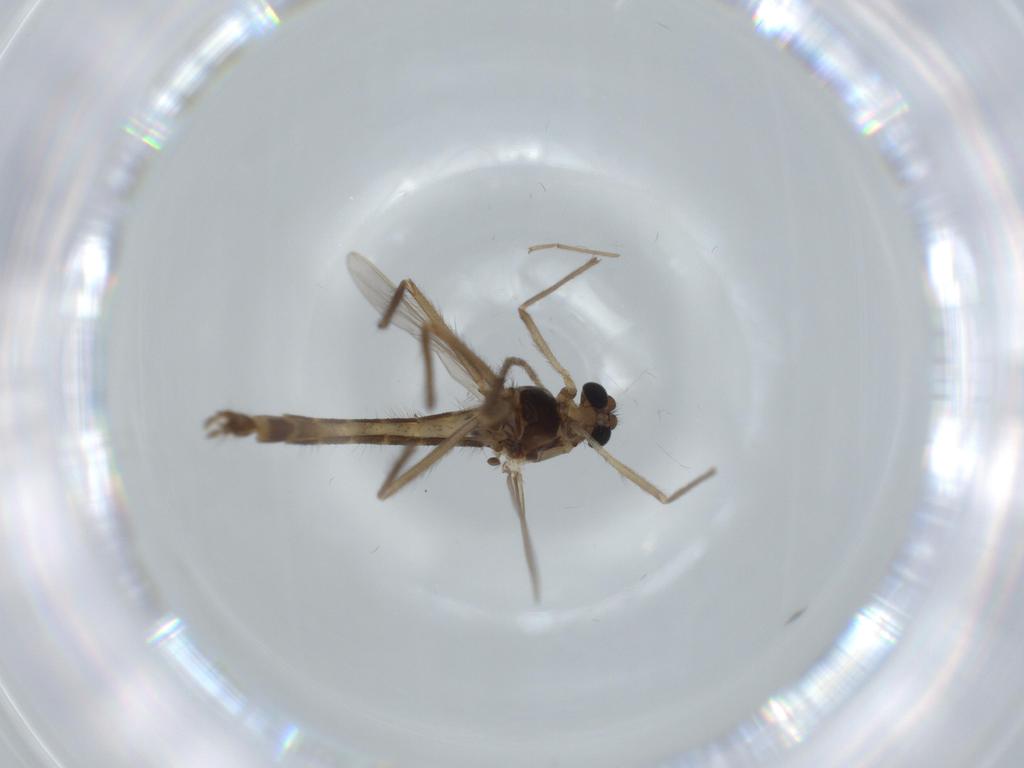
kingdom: Animalia
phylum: Arthropoda
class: Insecta
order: Diptera
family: Chironomidae
